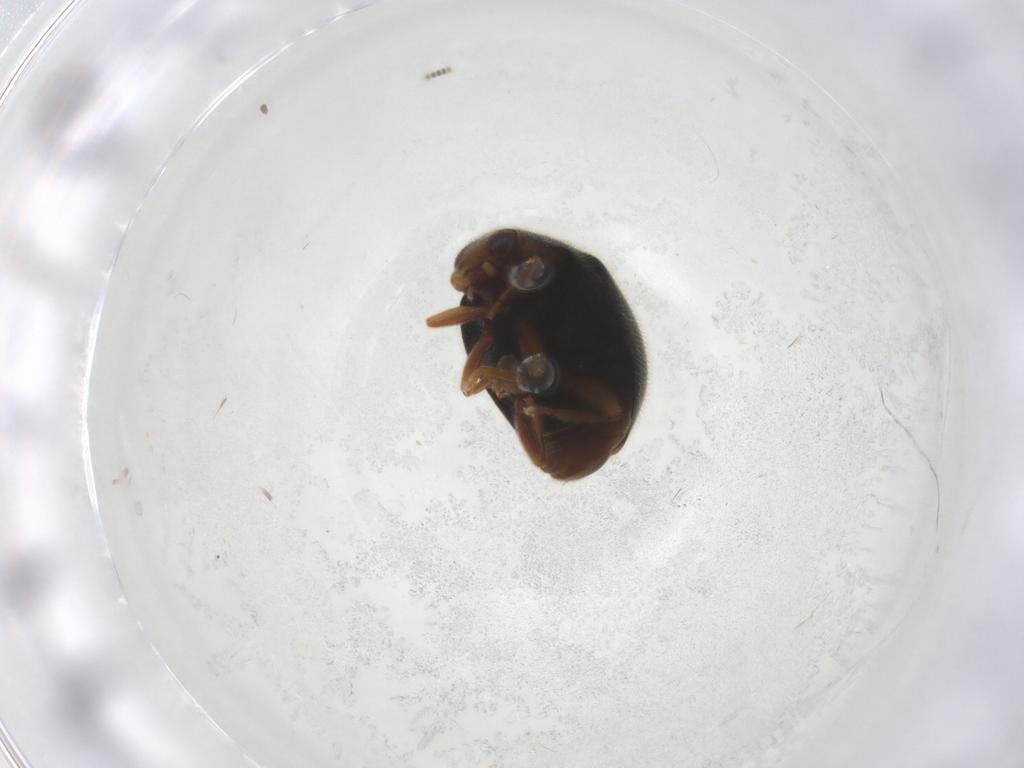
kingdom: Animalia
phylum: Arthropoda
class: Insecta
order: Coleoptera
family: Coccinellidae
